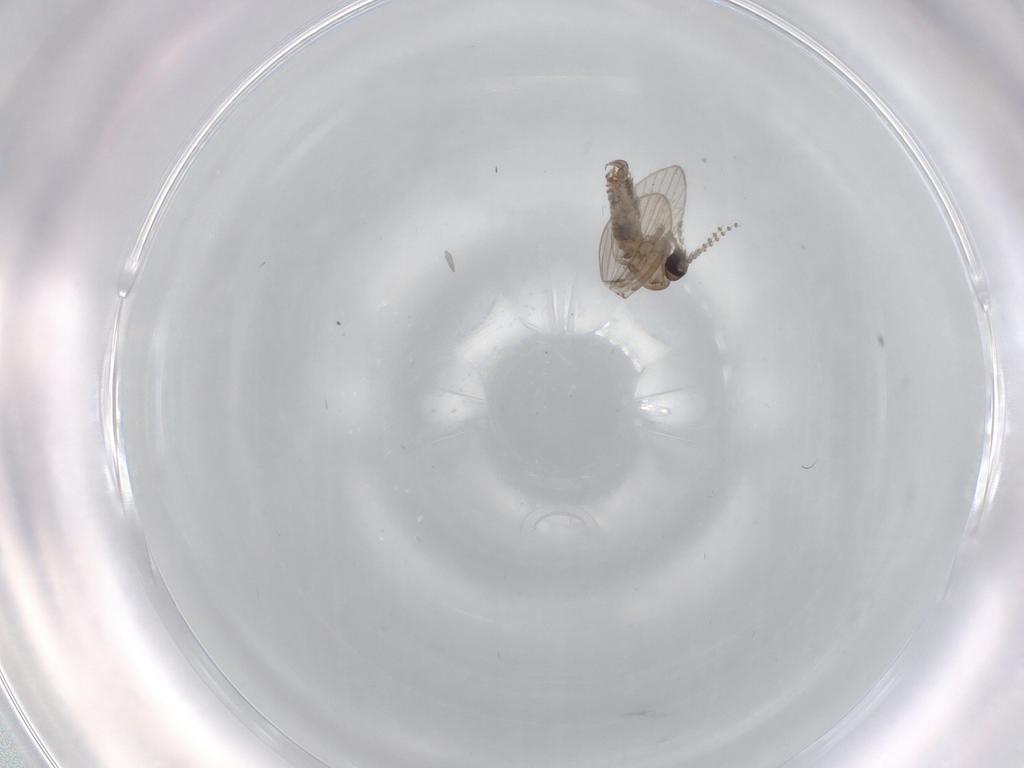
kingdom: Animalia
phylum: Arthropoda
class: Insecta
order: Diptera
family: Psychodidae
